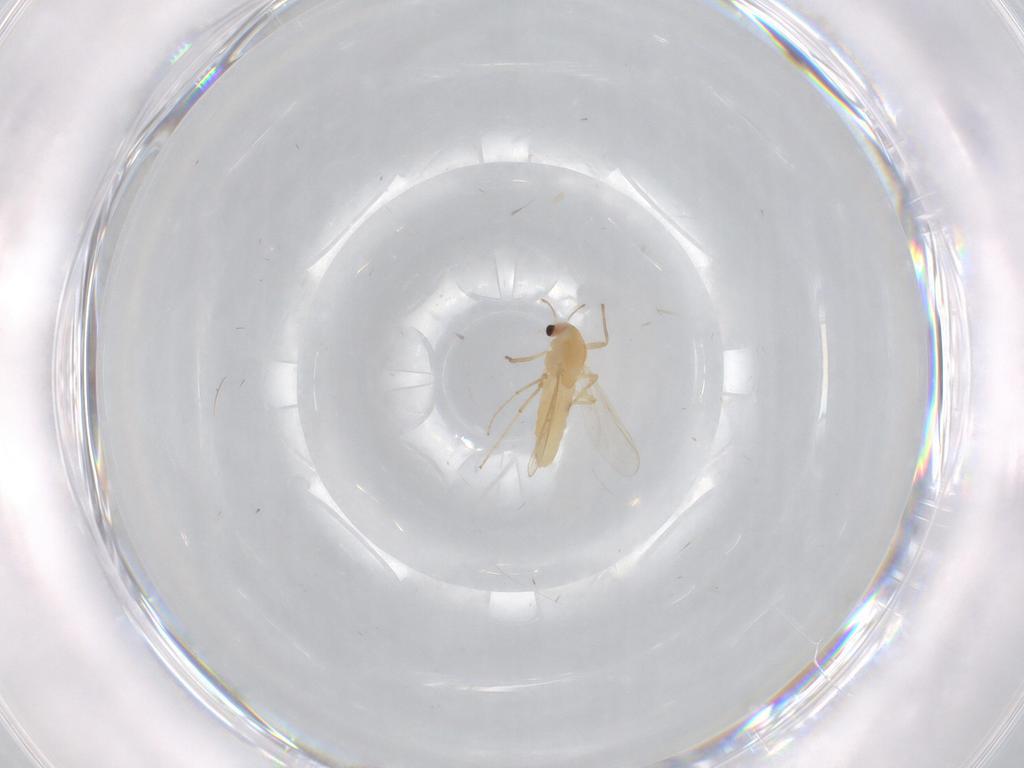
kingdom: Animalia
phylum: Arthropoda
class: Insecta
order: Diptera
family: Chironomidae
